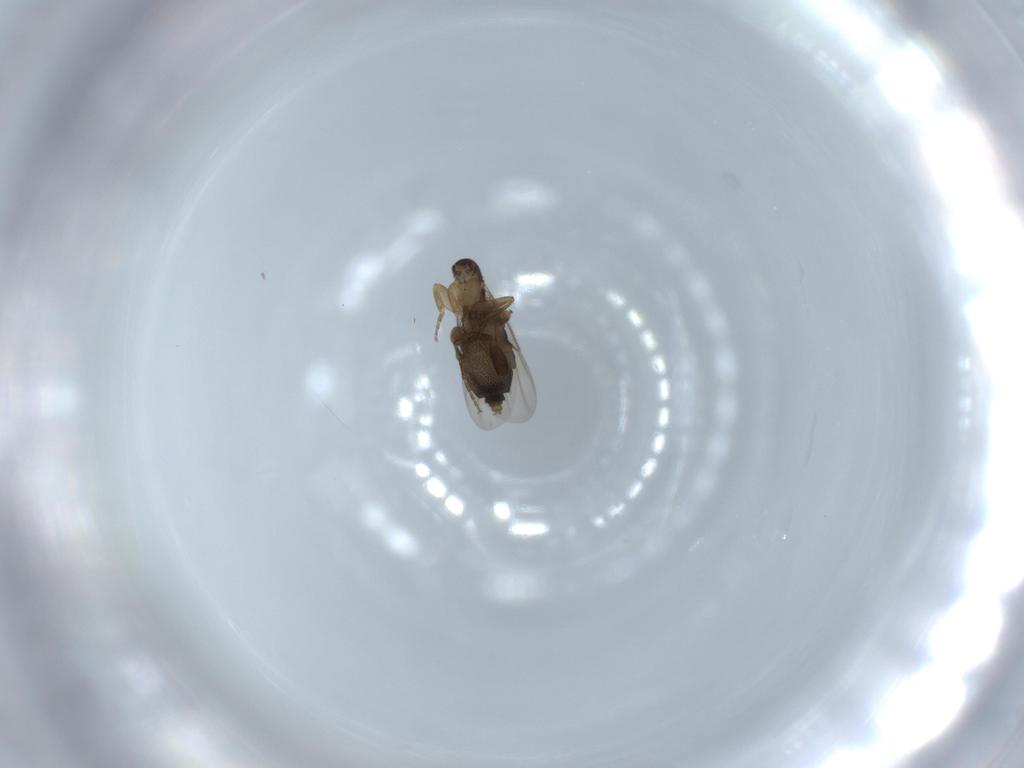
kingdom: Animalia
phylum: Arthropoda
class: Insecta
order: Diptera
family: Phoridae
